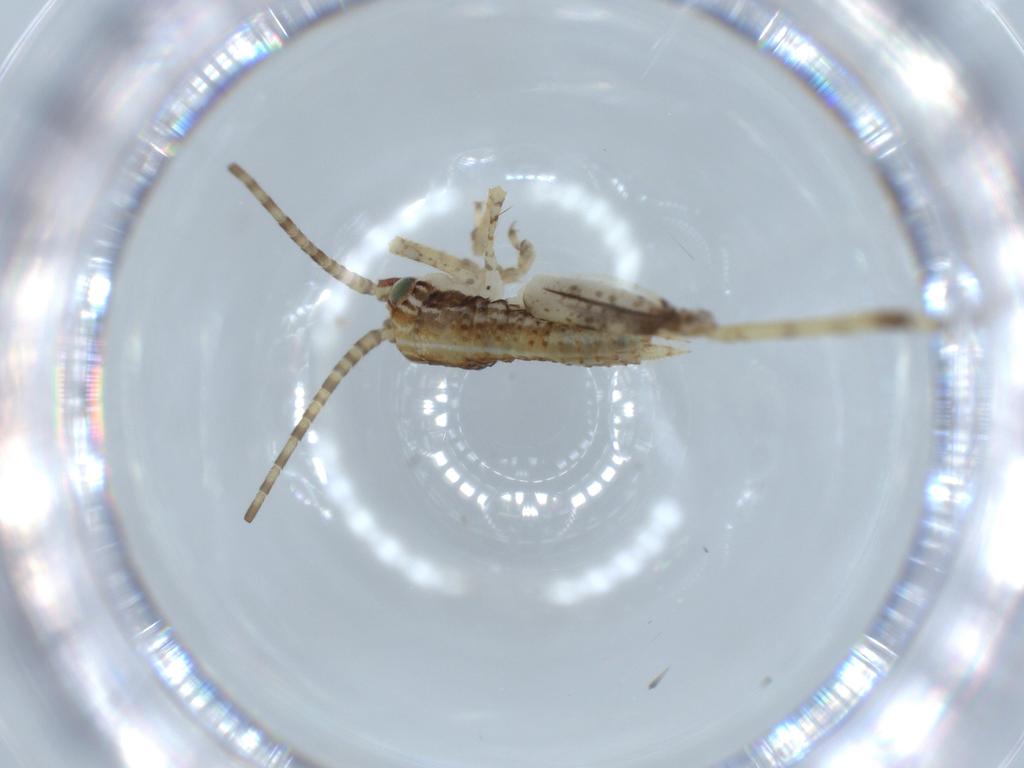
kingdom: Animalia
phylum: Arthropoda
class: Insecta
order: Orthoptera
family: Gryllidae
